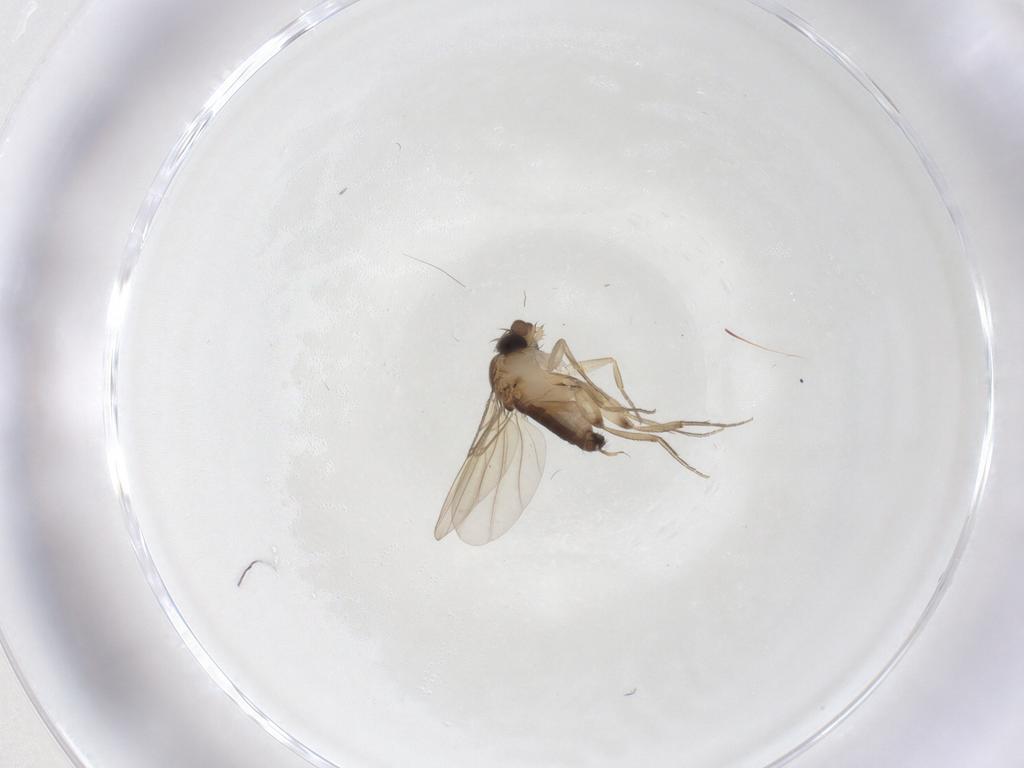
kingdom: Animalia
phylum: Arthropoda
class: Insecta
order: Diptera
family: Phoridae
